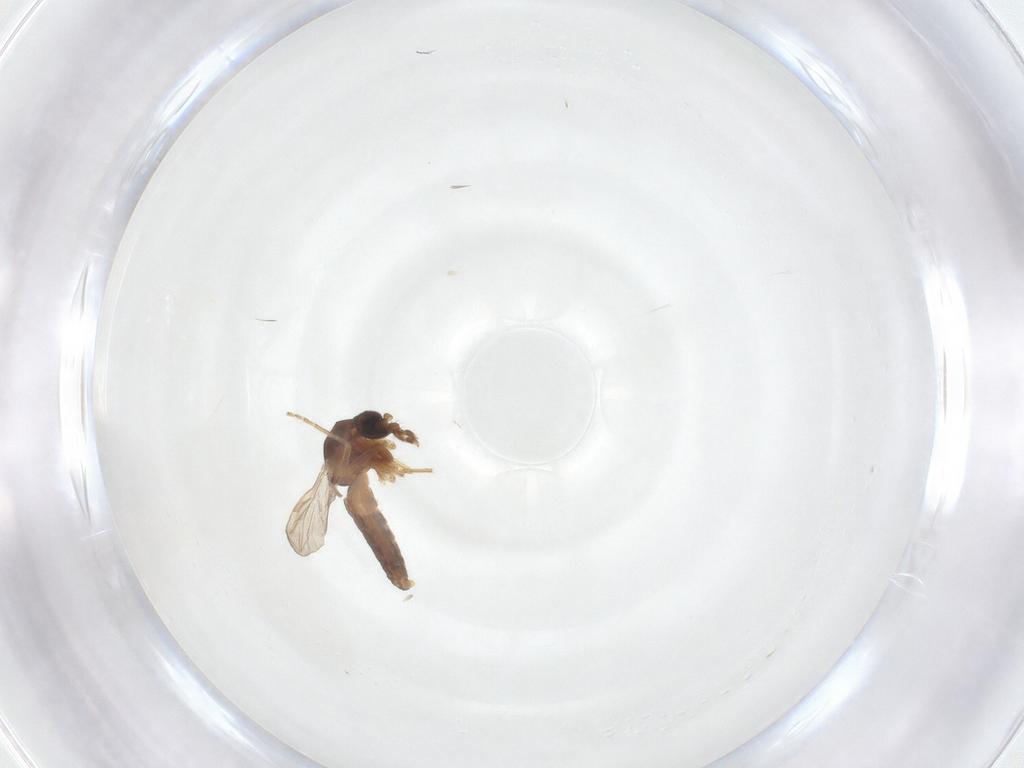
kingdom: Animalia
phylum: Arthropoda
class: Insecta
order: Diptera
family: Ceratopogonidae
